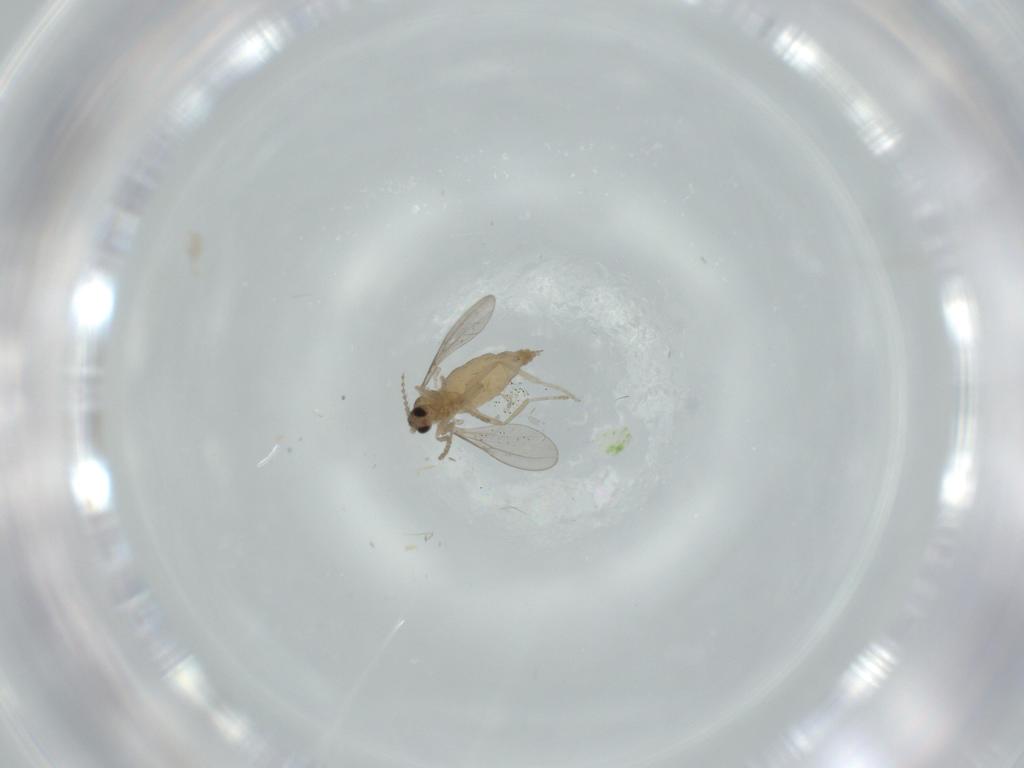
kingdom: Animalia
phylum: Arthropoda
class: Insecta
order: Diptera
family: Cecidomyiidae
